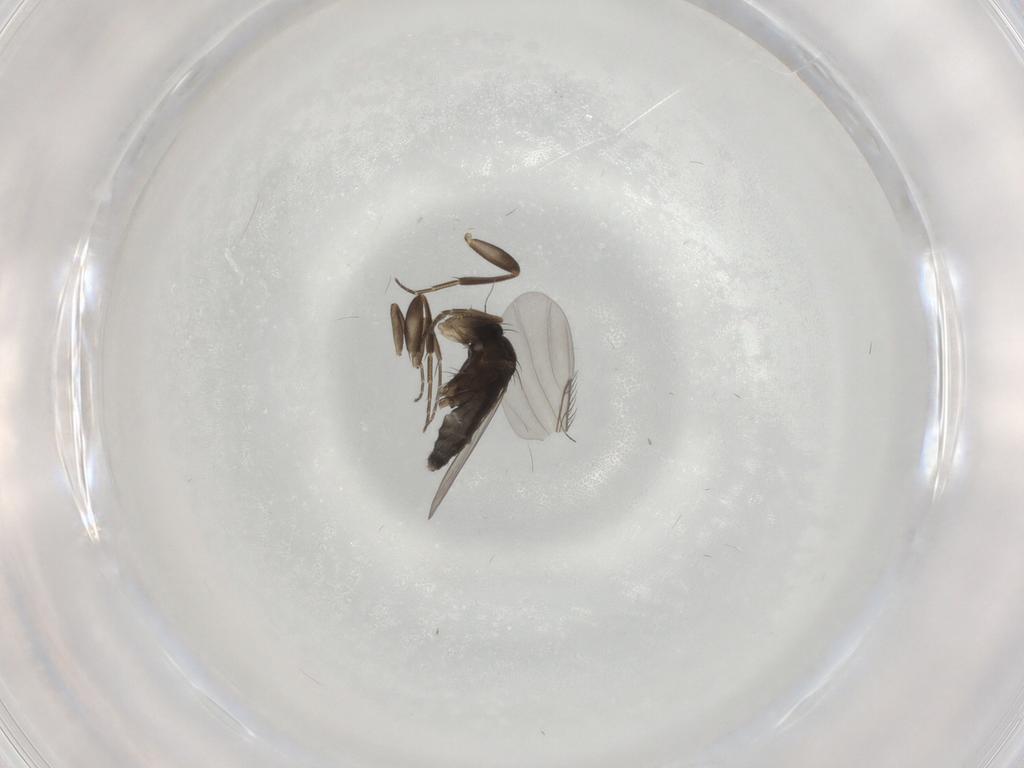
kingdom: Animalia
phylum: Arthropoda
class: Insecta
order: Diptera
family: Phoridae
